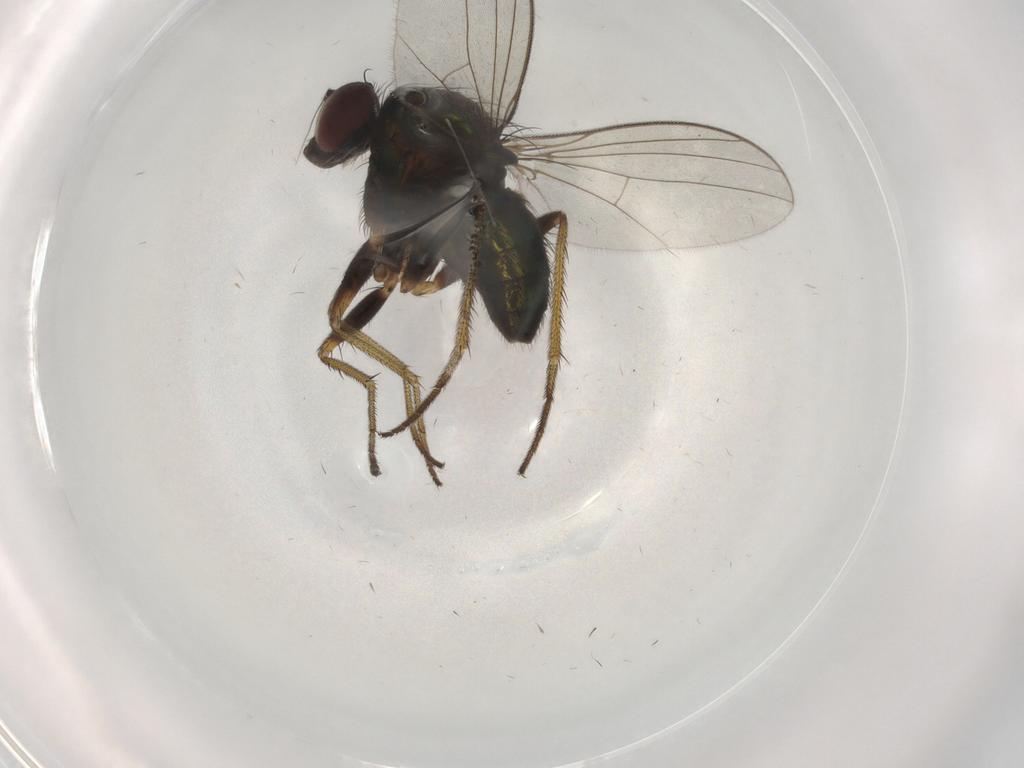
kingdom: Animalia
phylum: Arthropoda
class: Insecta
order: Diptera
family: Dolichopodidae
